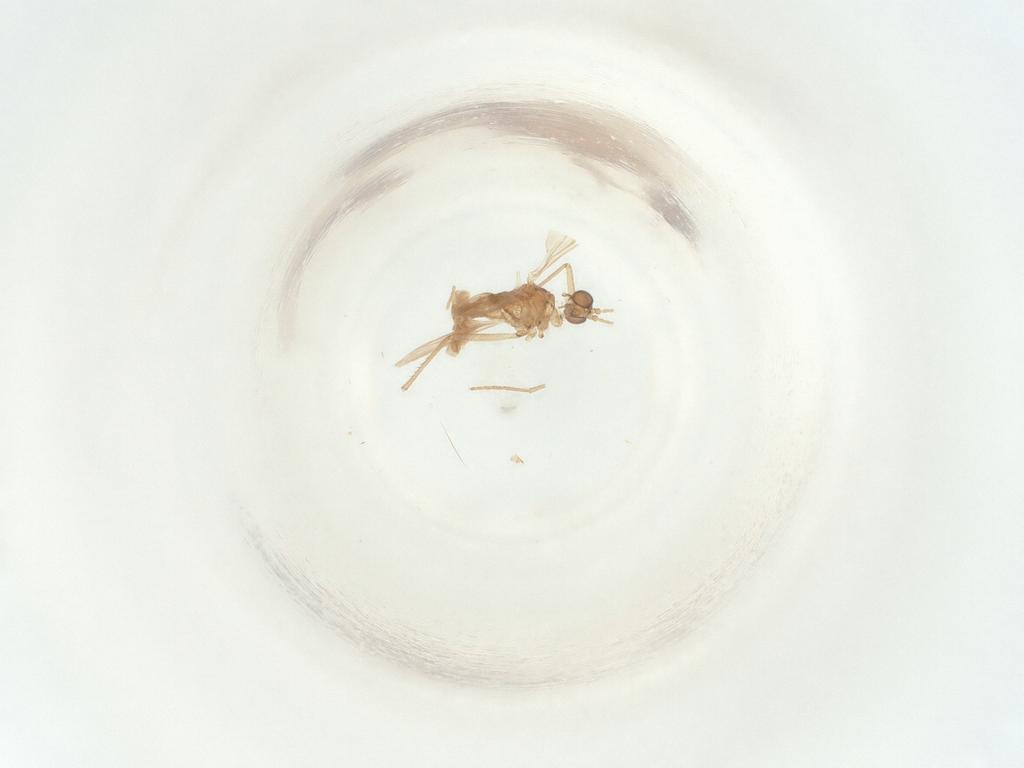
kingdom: Animalia
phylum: Arthropoda
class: Insecta
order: Diptera
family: Sciaridae
